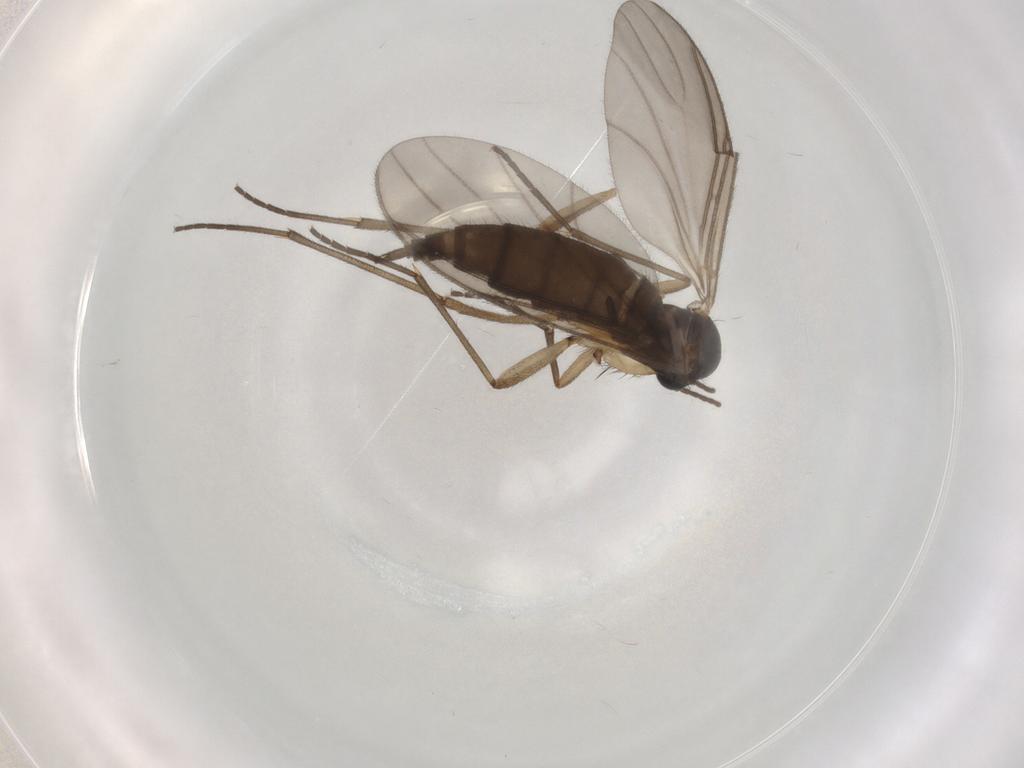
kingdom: Animalia
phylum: Arthropoda
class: Insecta
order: Diptera
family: Sciaridae
